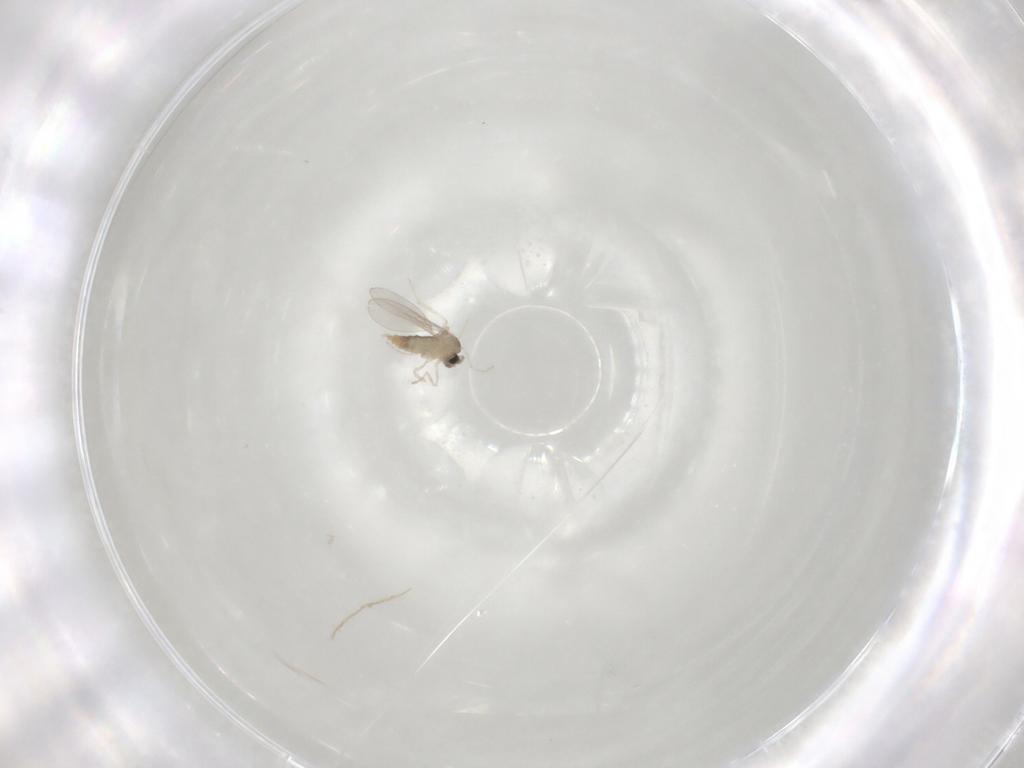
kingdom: Animalia
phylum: Arthropoda
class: Insecta
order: Diptera
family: Cecidomyiidae
